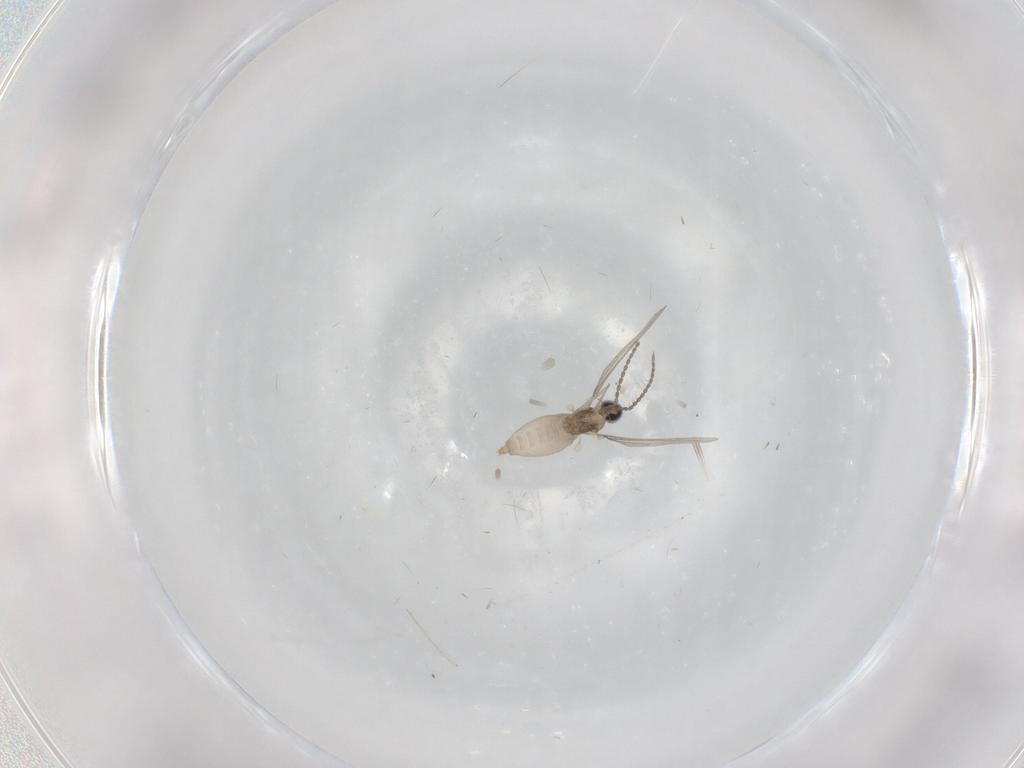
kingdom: Animalia
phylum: Arthropoda
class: Insecta
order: Diptera
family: Cecidomyiidae
